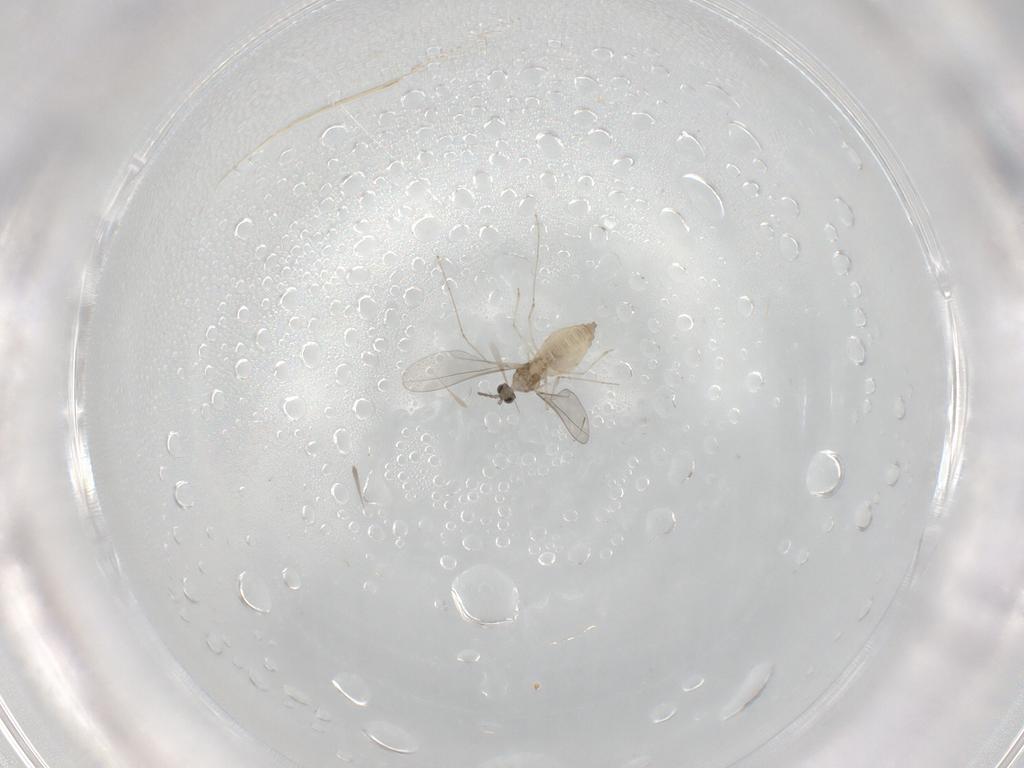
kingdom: Animalia
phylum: Arthropoda
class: Insecta
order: Diptera
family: Cecidomyiidae
